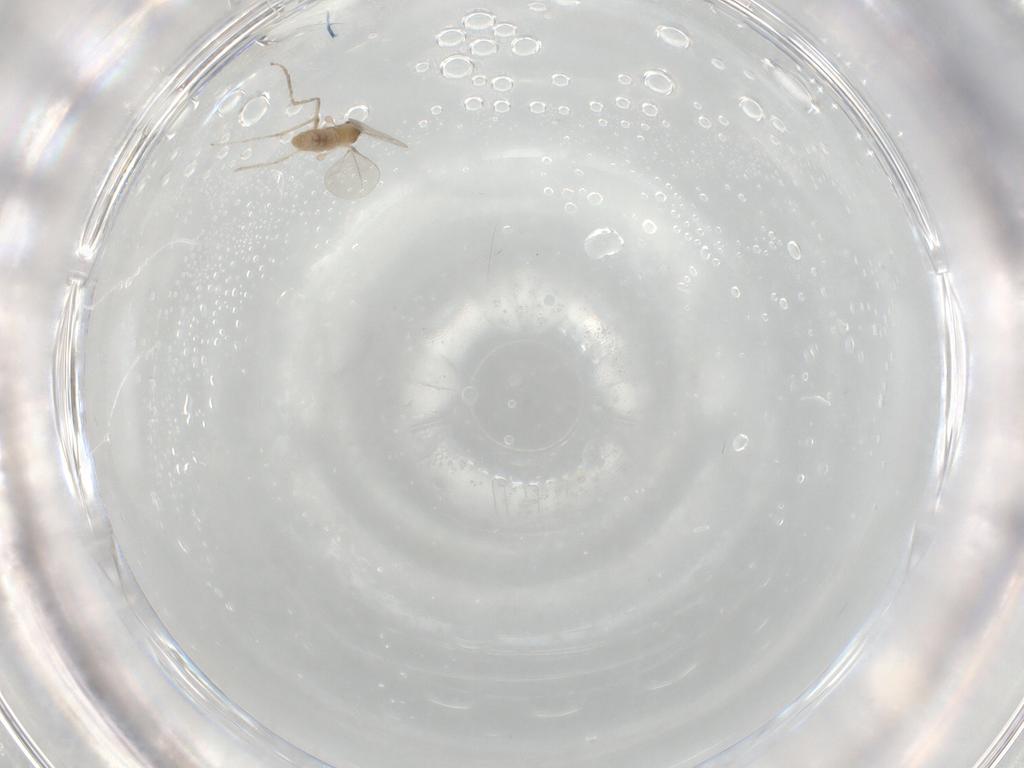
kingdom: Animalia
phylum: Arthropoda
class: Insecta
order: Diptera
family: Cecidomyiidae
